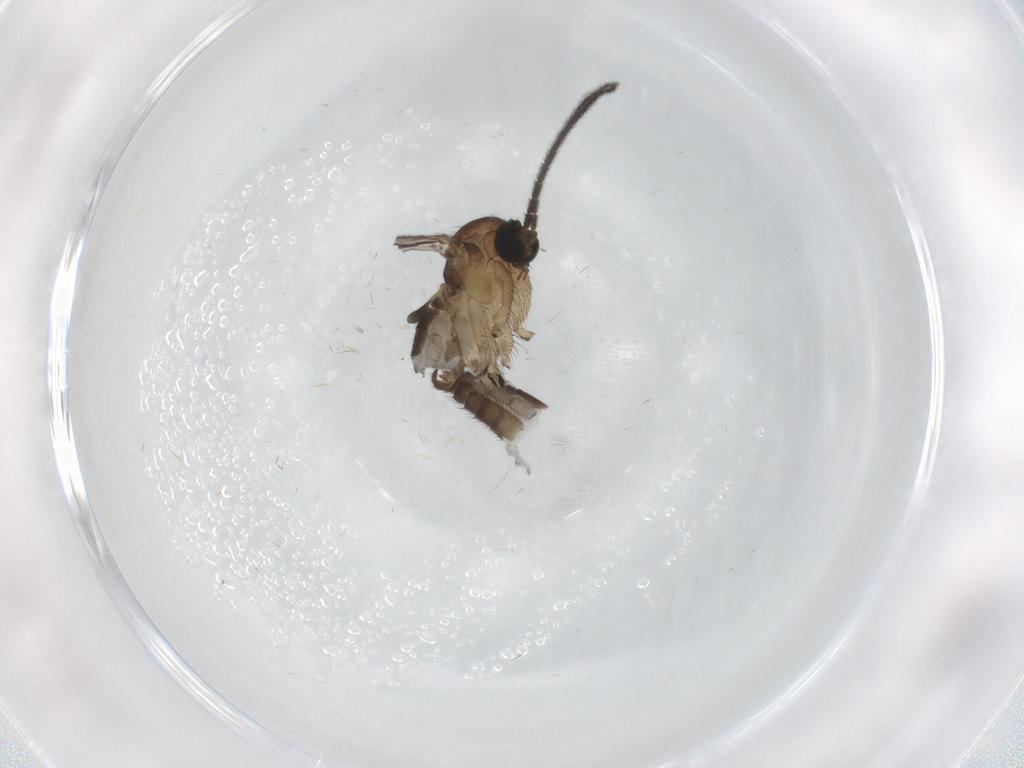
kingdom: Animalia
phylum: Arthropoda
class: Insecta
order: Diptera
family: Sciaridae
